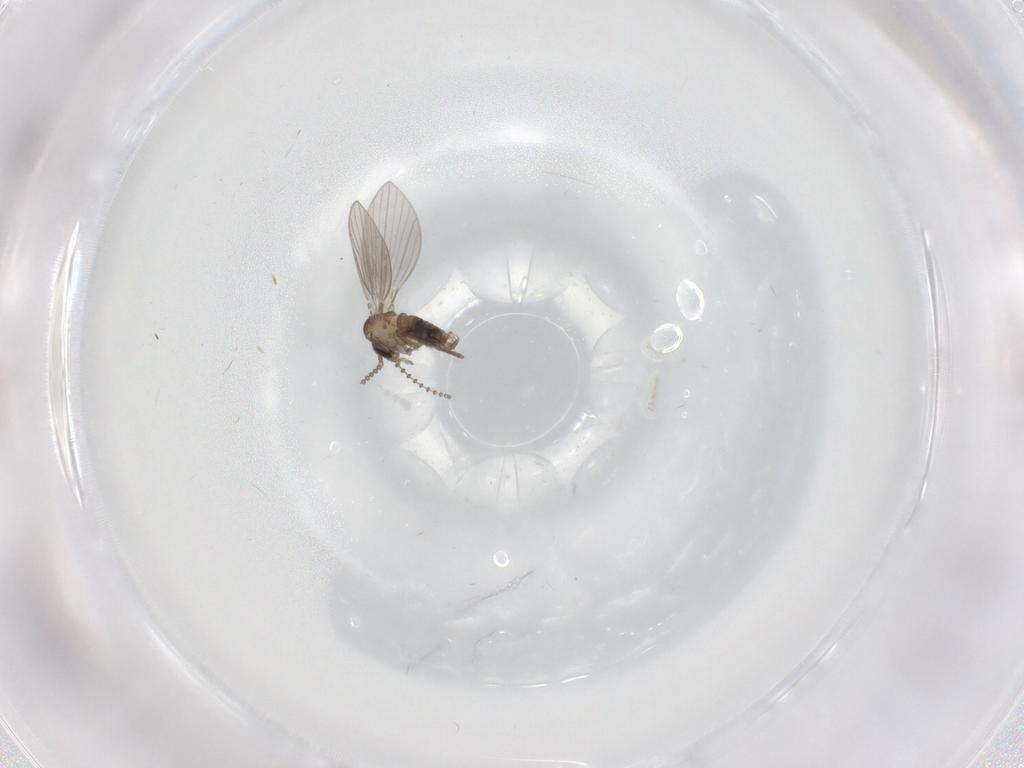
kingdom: Animalia
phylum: Arthropoda
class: Insecta
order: Diptera
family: Psychodidae
